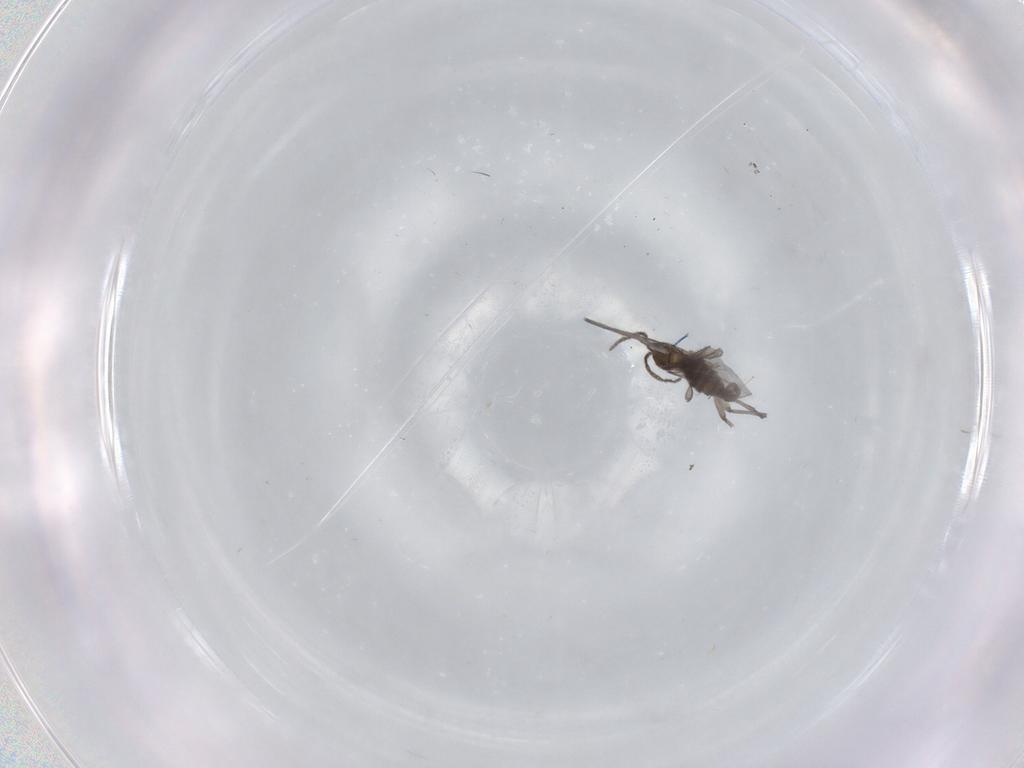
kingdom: Animalia
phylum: Arthropoda
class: Insecta
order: Diptera
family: Sciaridae
